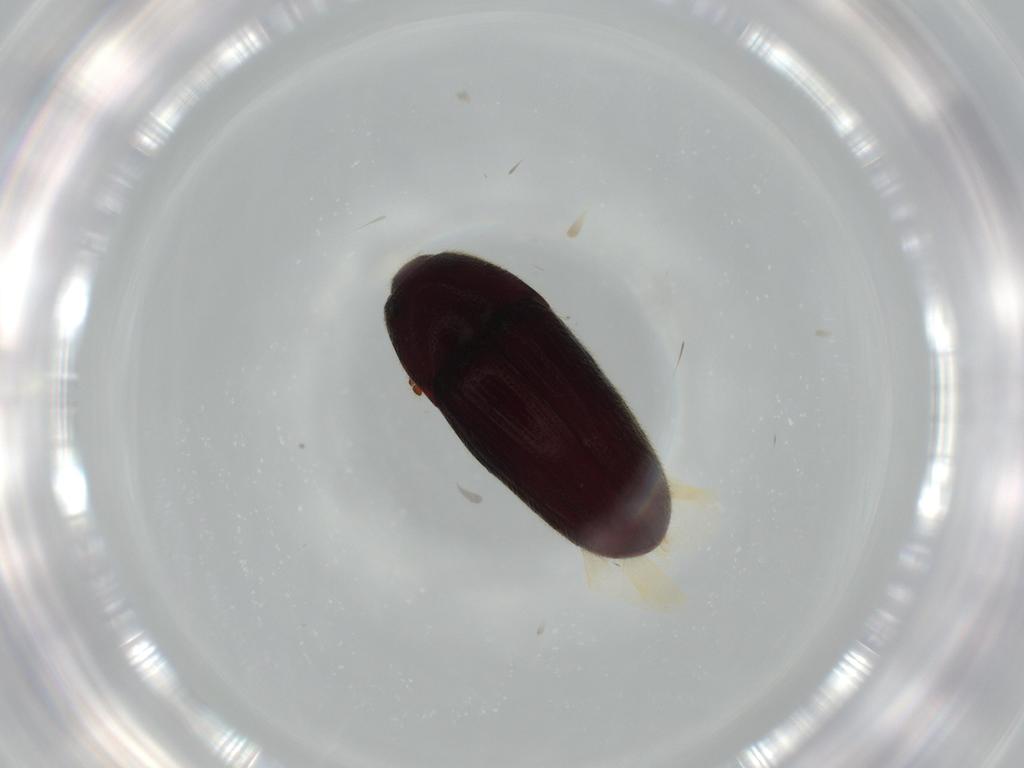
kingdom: Animalia
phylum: Arthropoda
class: Insecta
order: Coleoptera
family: Throscidae
